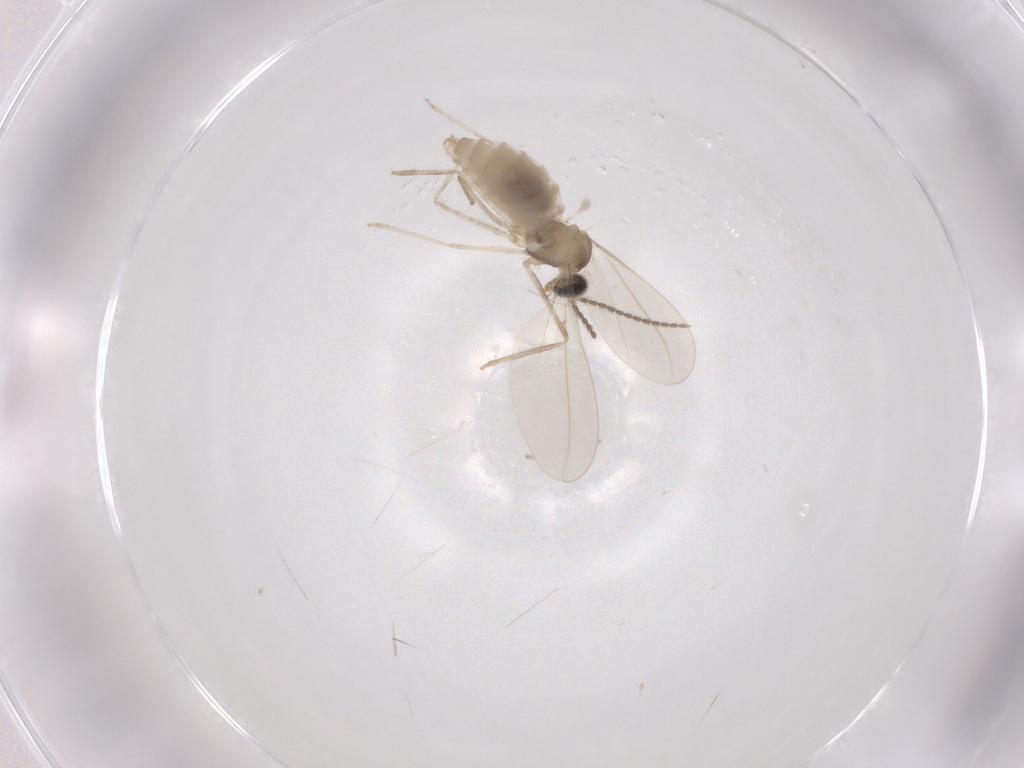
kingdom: Animalia
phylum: Arthropoda
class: Insecta
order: Diptera
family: Cecidomyiidae
